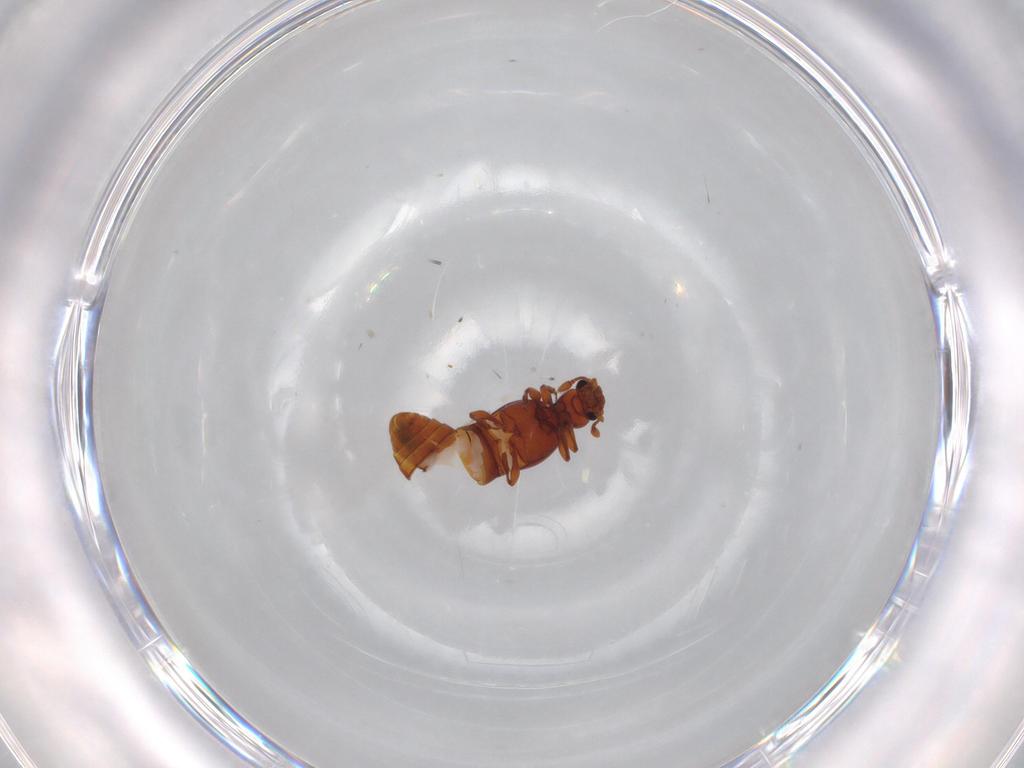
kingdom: Animalia
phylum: Arthropoda
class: Insecta
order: Coleoptera
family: Staphylinidae
